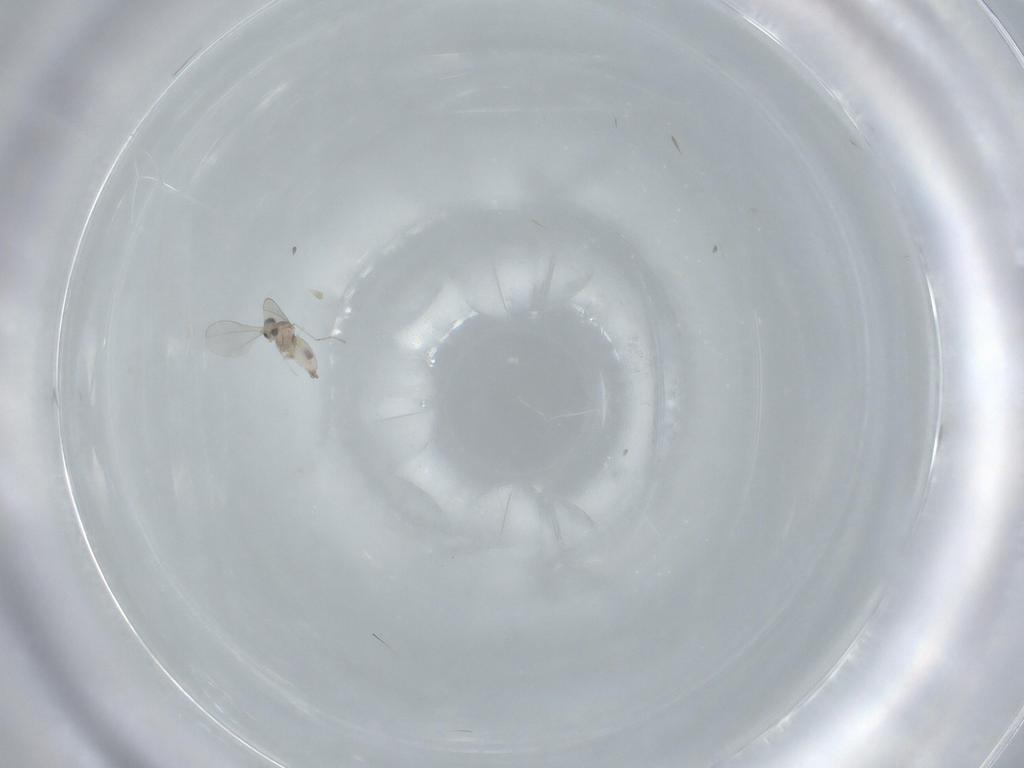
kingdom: Animalia
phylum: Arthropoda
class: Insecta
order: Diptera
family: Cecidomyiidae
